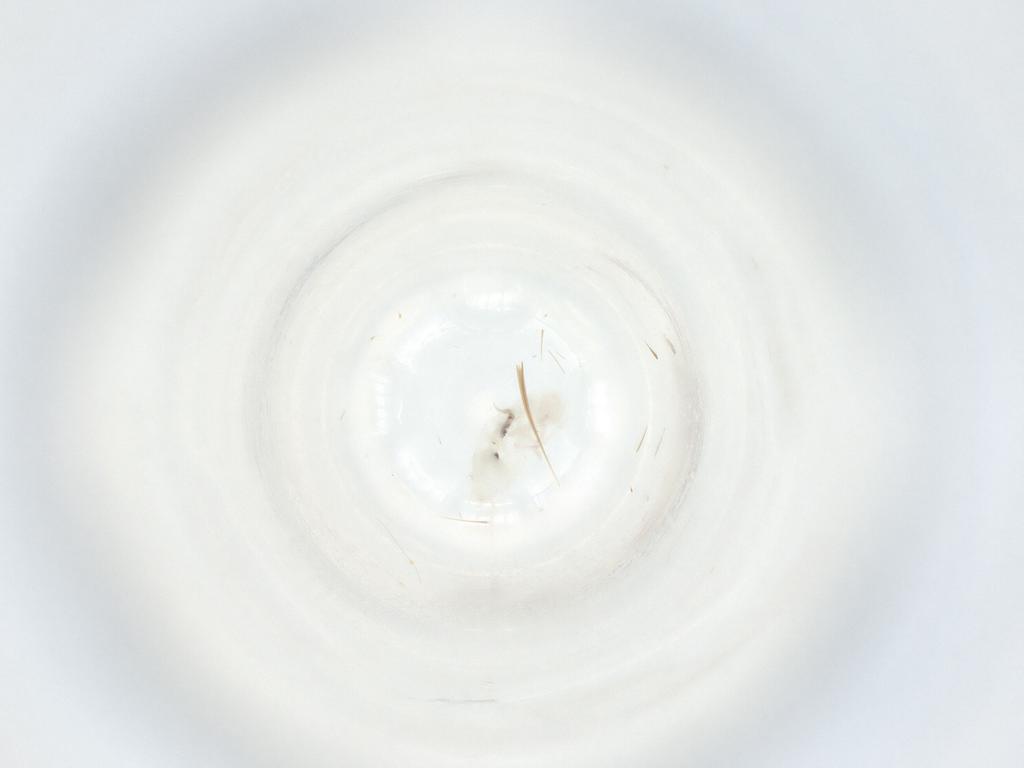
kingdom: Animalia
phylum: Arthropoda
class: Collembola
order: Entomobryomorpha
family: Entomobryidae
